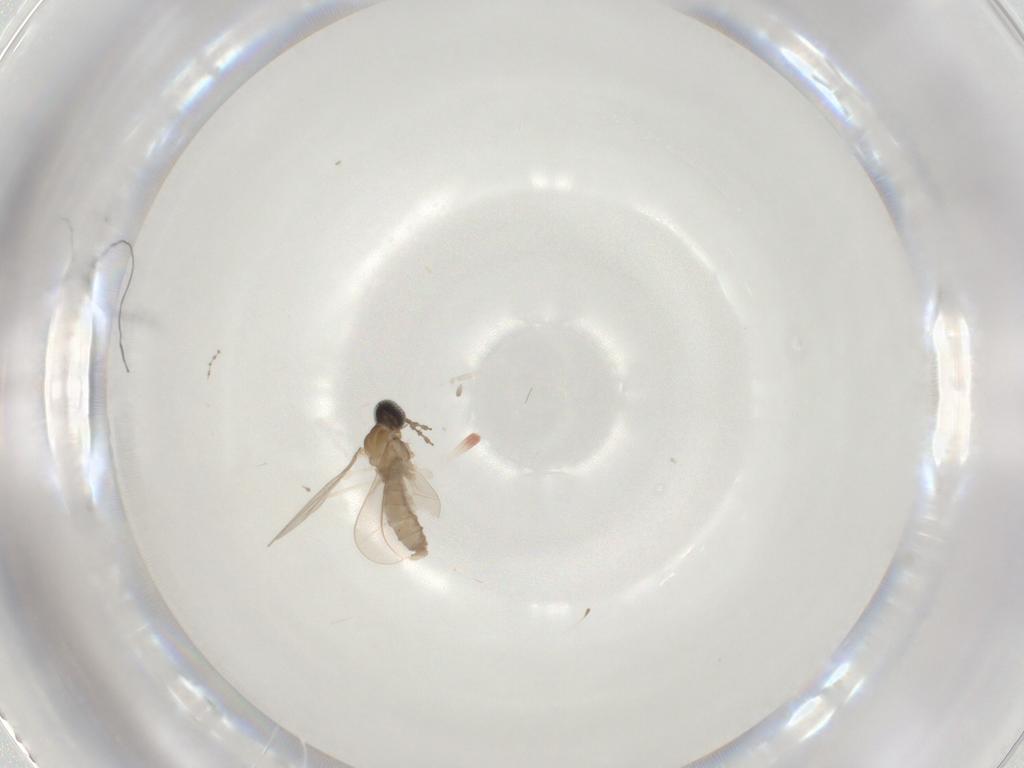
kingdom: Animalia
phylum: Arthropoda
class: Insecta
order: Diptera
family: Cecidomyiidae
